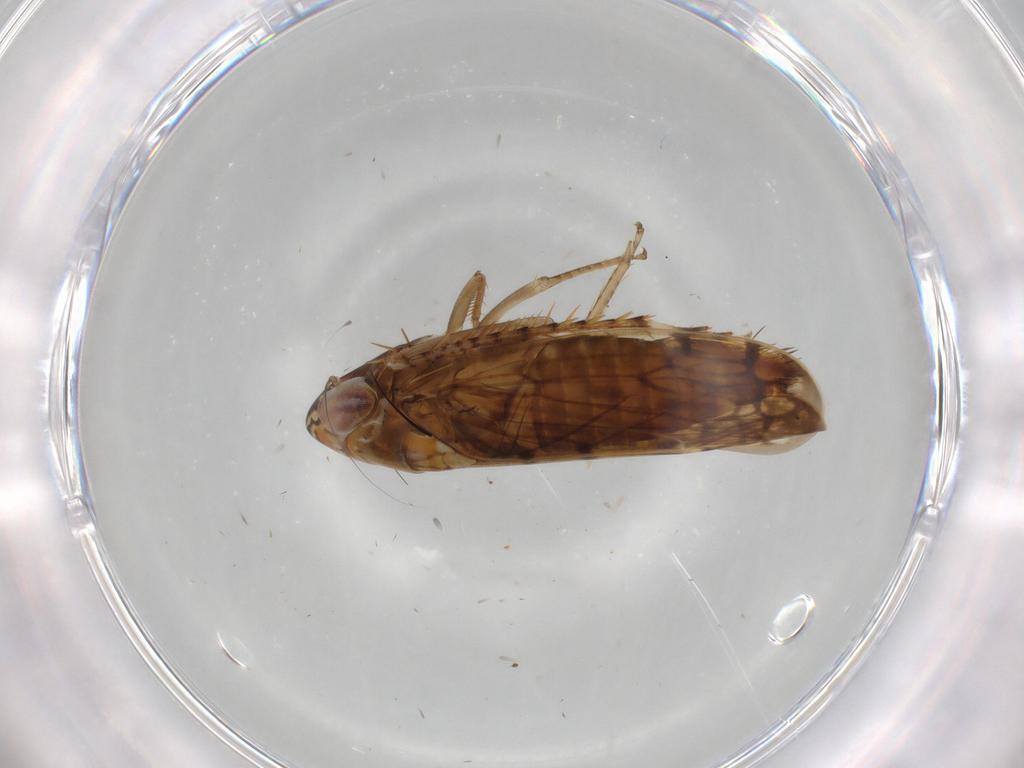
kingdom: Animalia
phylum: Arthropoda
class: Insecta
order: Hemiptera
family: Cicadellidae
